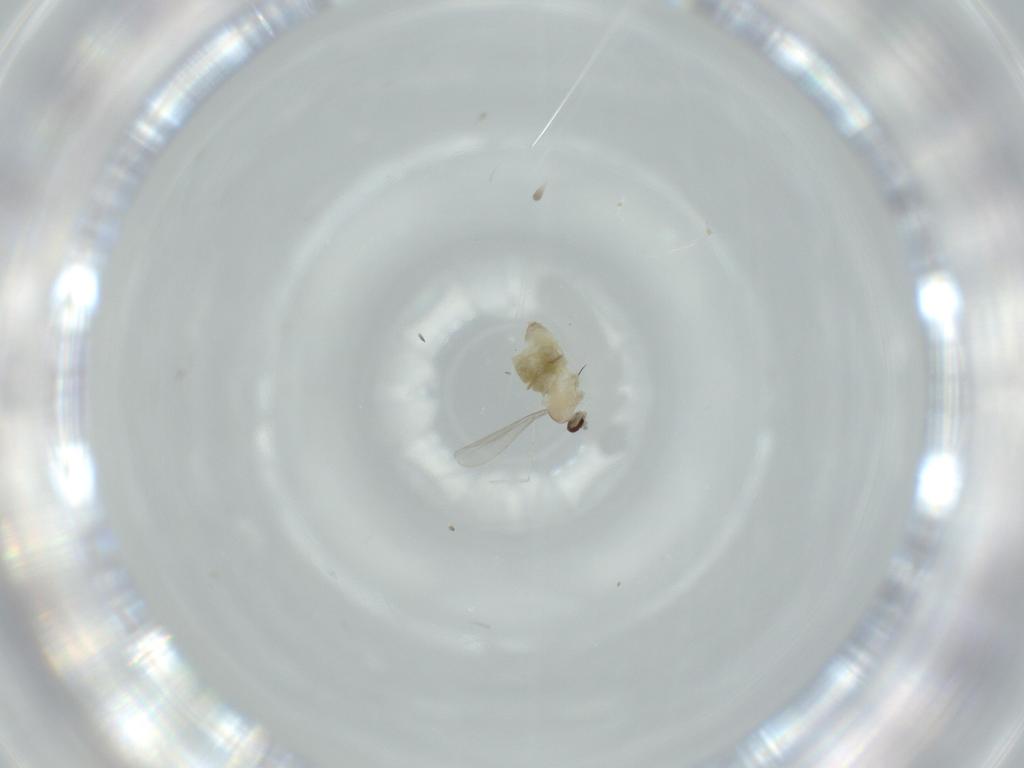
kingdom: Animalia
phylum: Arthropoda
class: Insecta
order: Diptera
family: Cecidomyiidae
